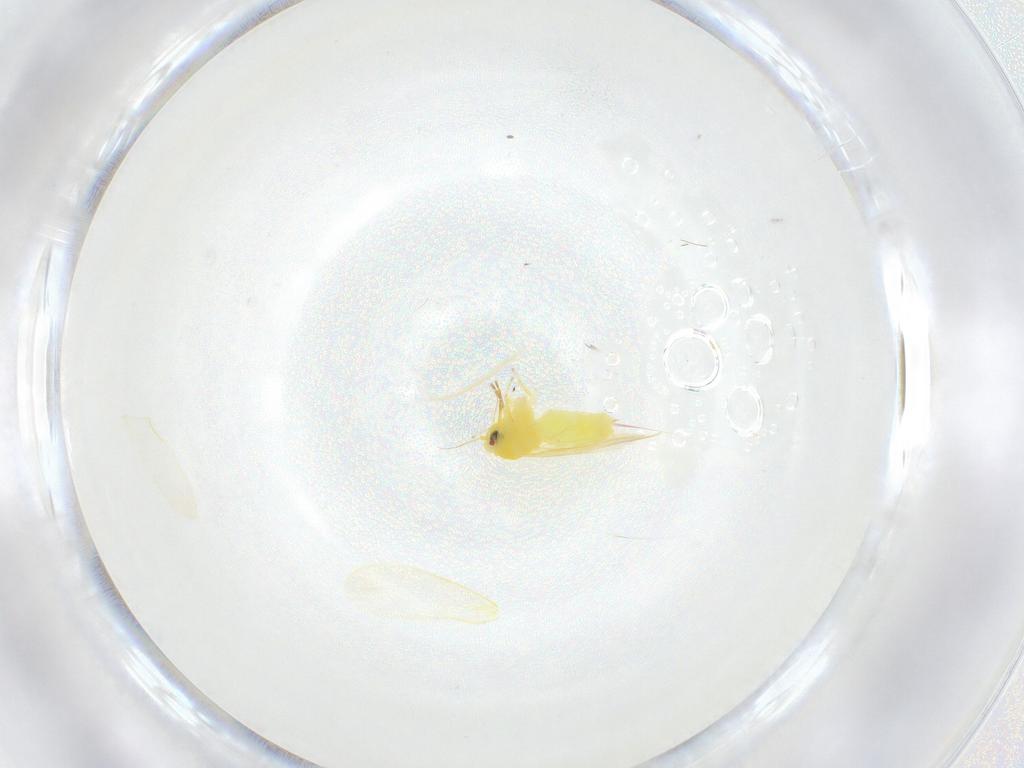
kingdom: Animalia
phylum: Arthropoda
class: Insecta
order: Hemiptera
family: Aleyrodidae
